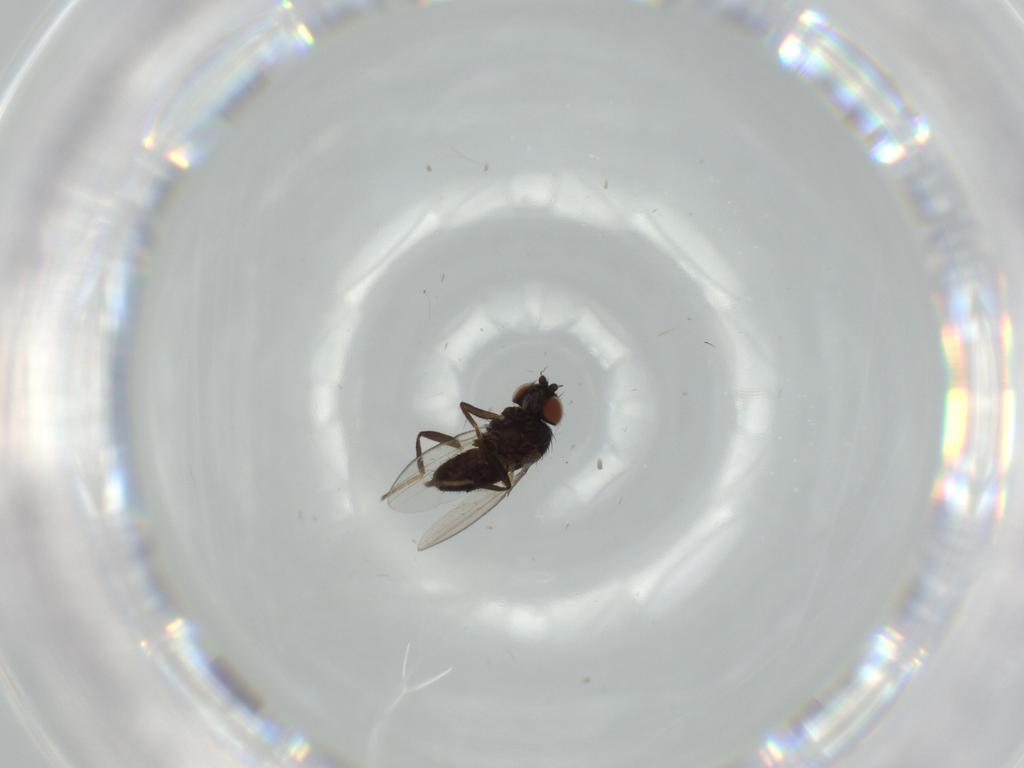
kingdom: Animalia
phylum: Arthropoda
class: Insecta
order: Diptera
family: Milichiidae
